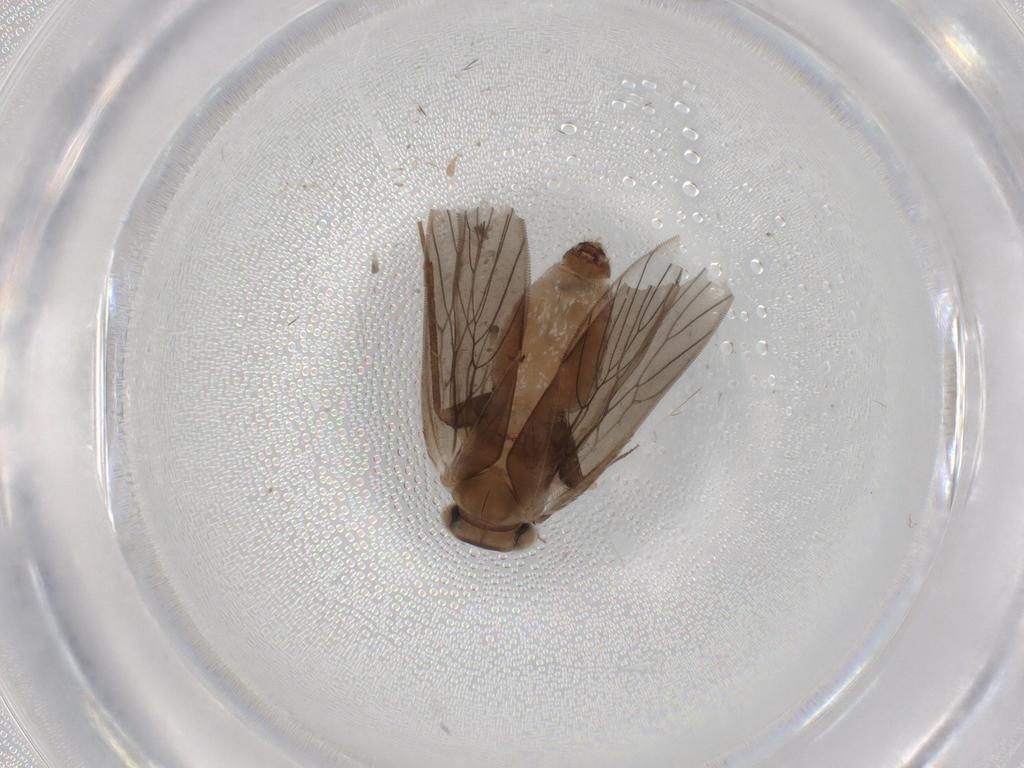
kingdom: Animalia
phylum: Arthropoda
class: Insecta
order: Psocodea
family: Lepidopsocidae
